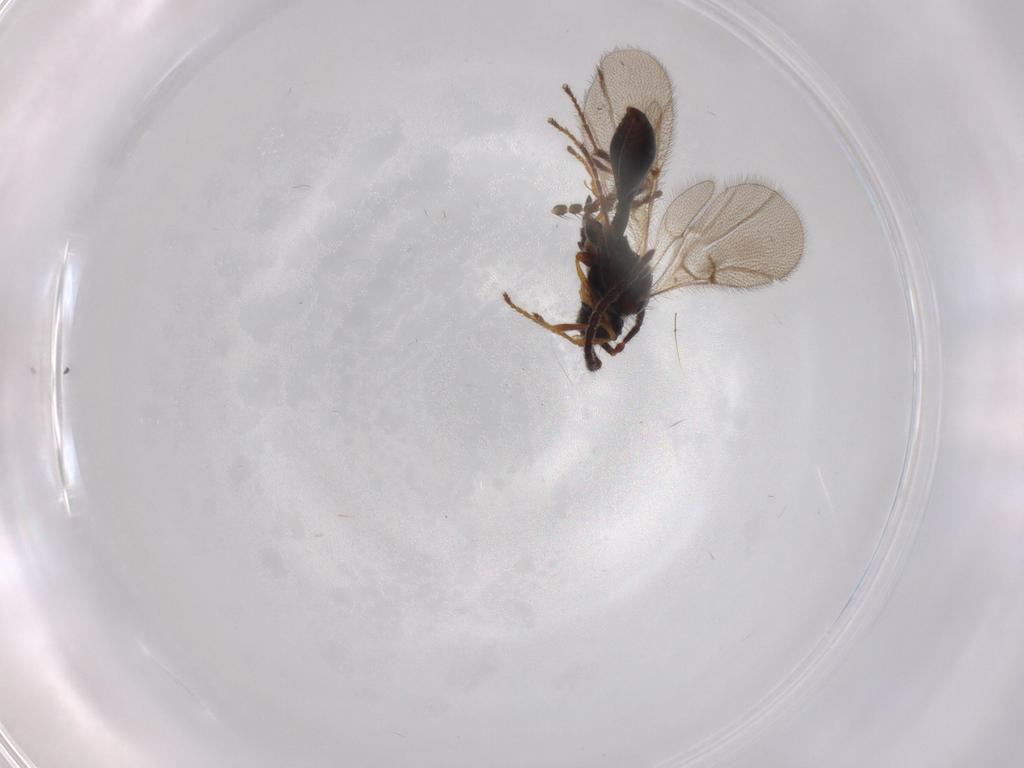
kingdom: Animalia
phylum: Arthropoda
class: Insecta
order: Hymenoptera
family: Diapriidae
